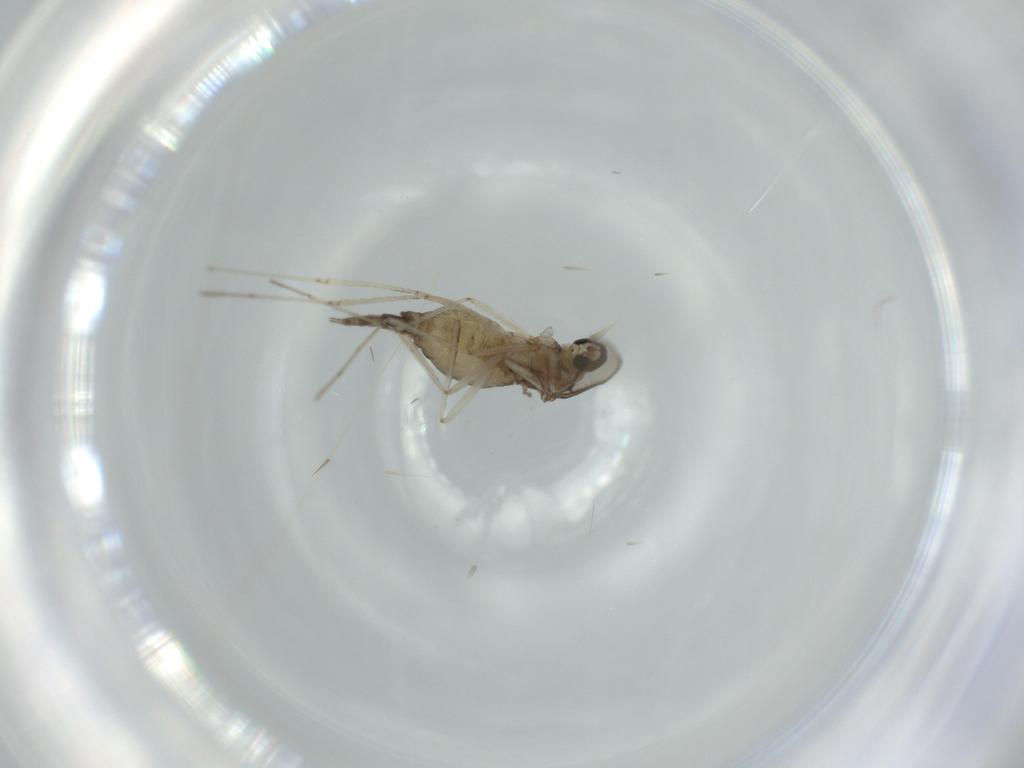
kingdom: Animalia
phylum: Arthropoda
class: Insecta
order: Diptera
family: Cecidomyiidae
